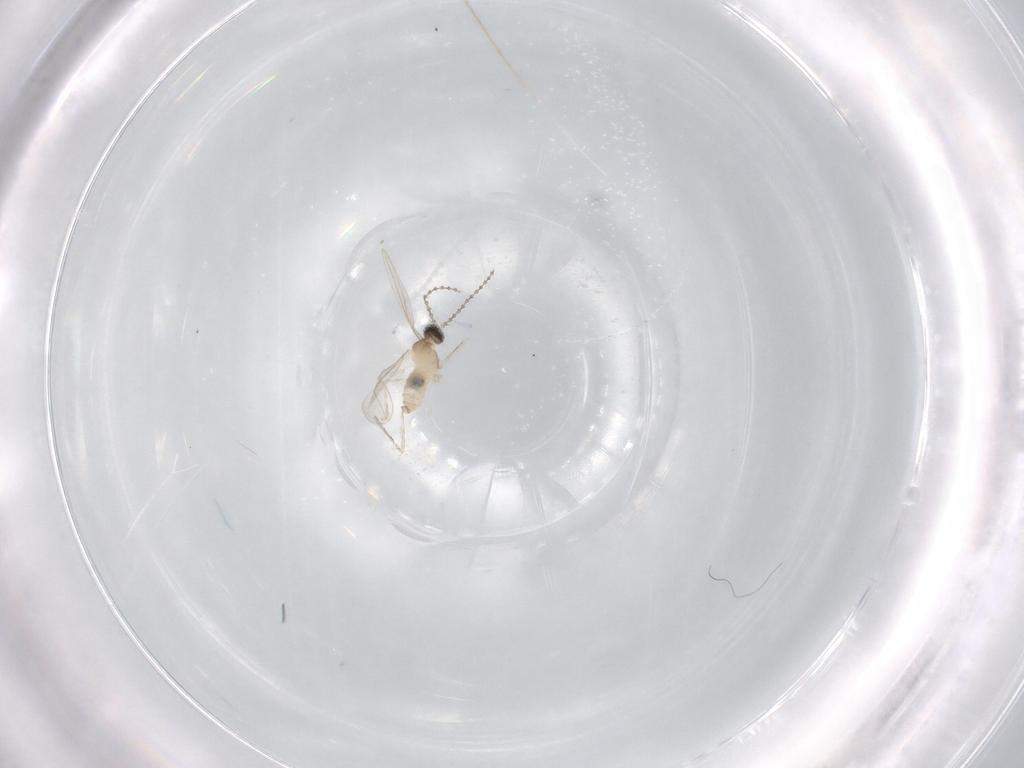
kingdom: Animalia
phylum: Arthropoda
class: Insecta
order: Diptera
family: Cecidomyiidae
